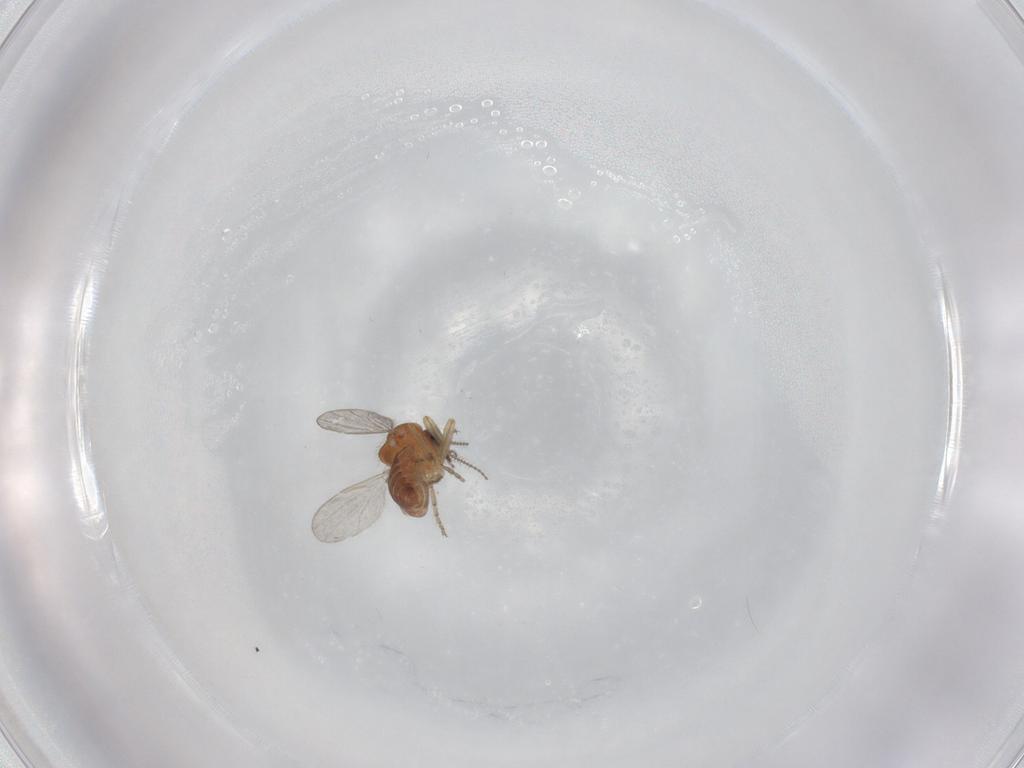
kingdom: Animalia
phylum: Arthropoda
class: Insecta
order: Diptera
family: Ceratopogonidae
